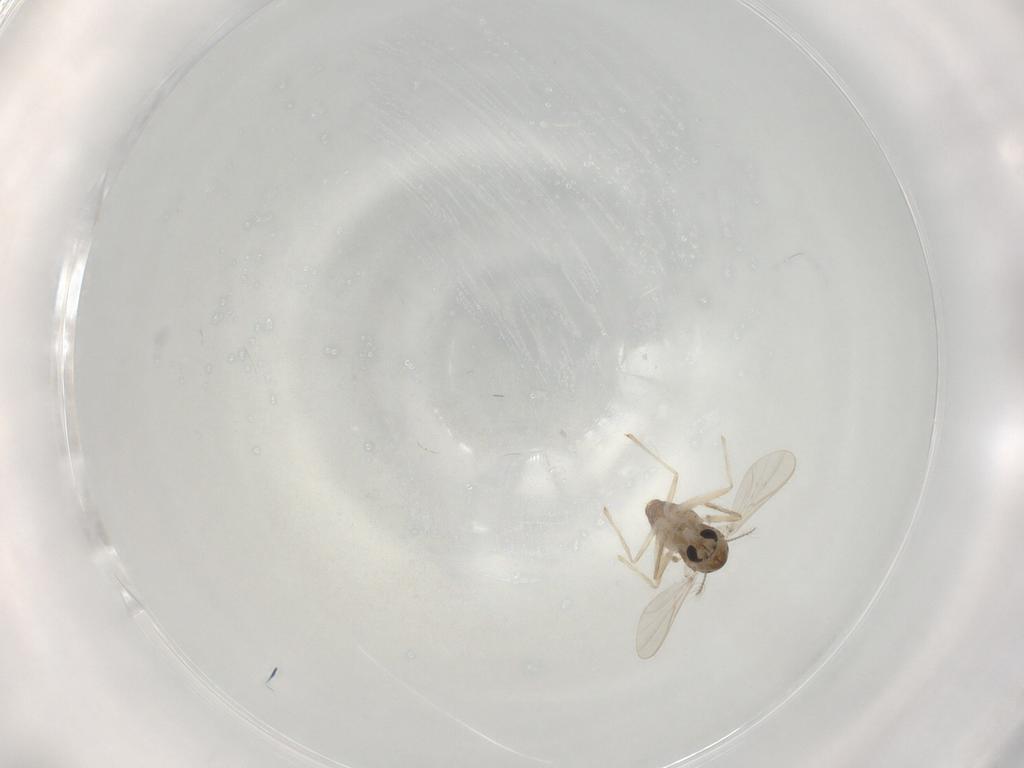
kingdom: Animalia
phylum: Arthropoda
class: Insecta
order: Diptera
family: Chironomidae
